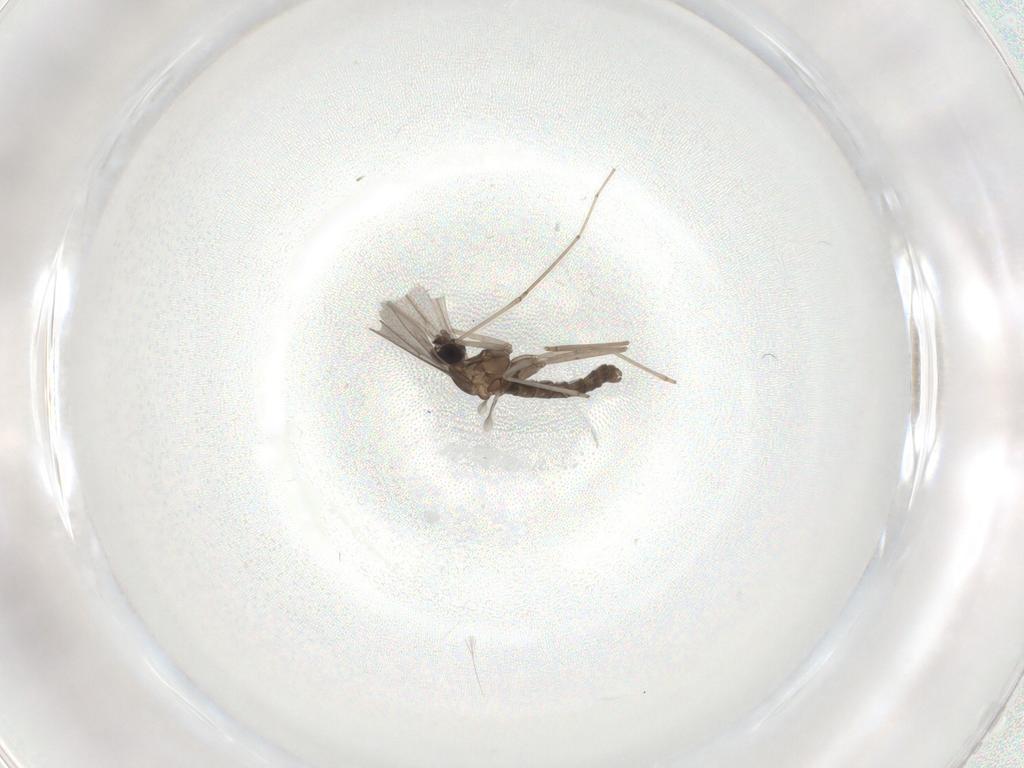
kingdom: Animalia
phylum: Arthropoda
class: Insecta
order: Diptera
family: Cecidomyiidae
